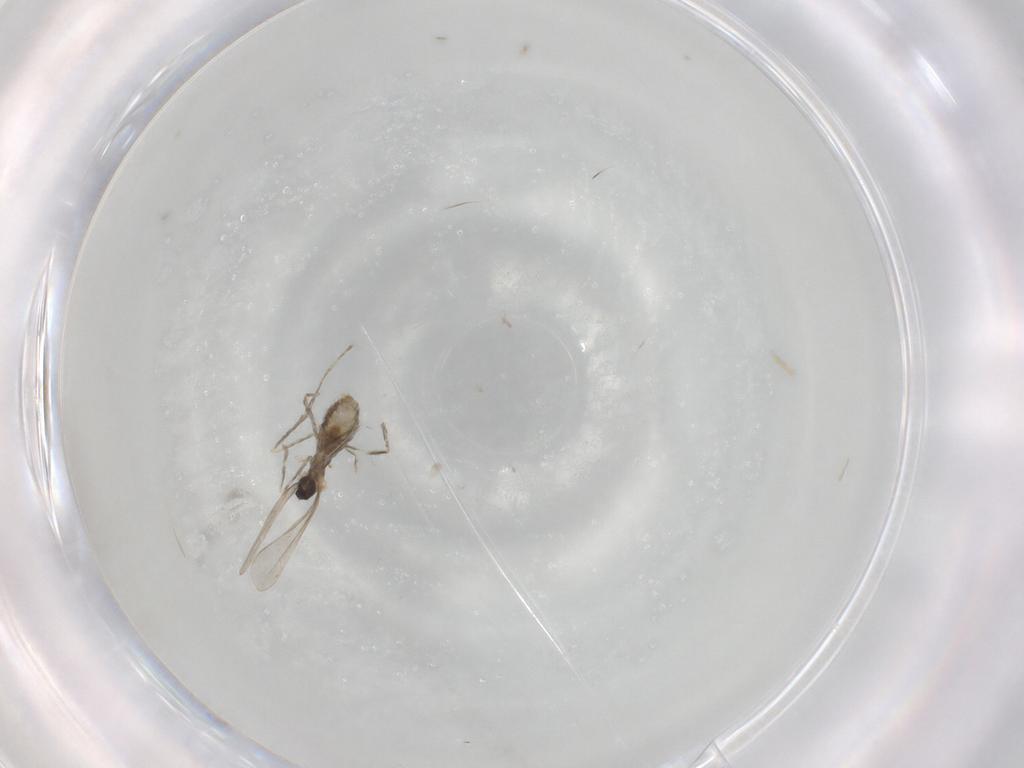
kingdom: Animalia
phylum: Arthropoda
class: Insecta
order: Diptera
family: Cecidomyiidae
